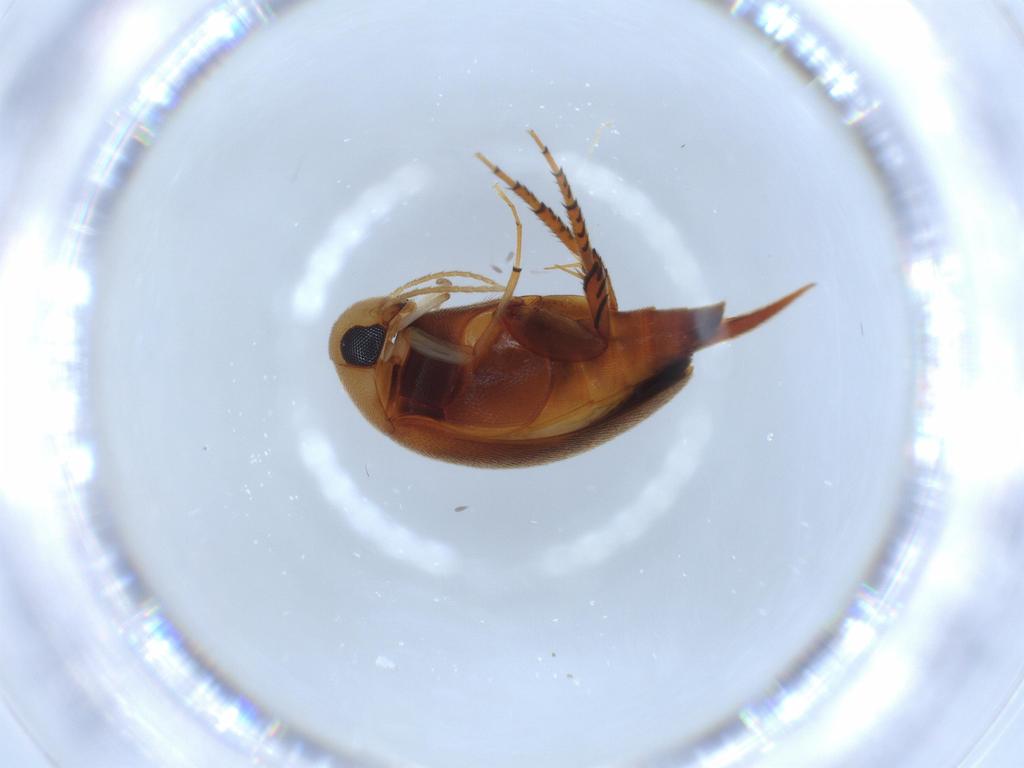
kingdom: Animalia
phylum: Arthropoda
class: Insecta
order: Coleoptera
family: Mordellidae
